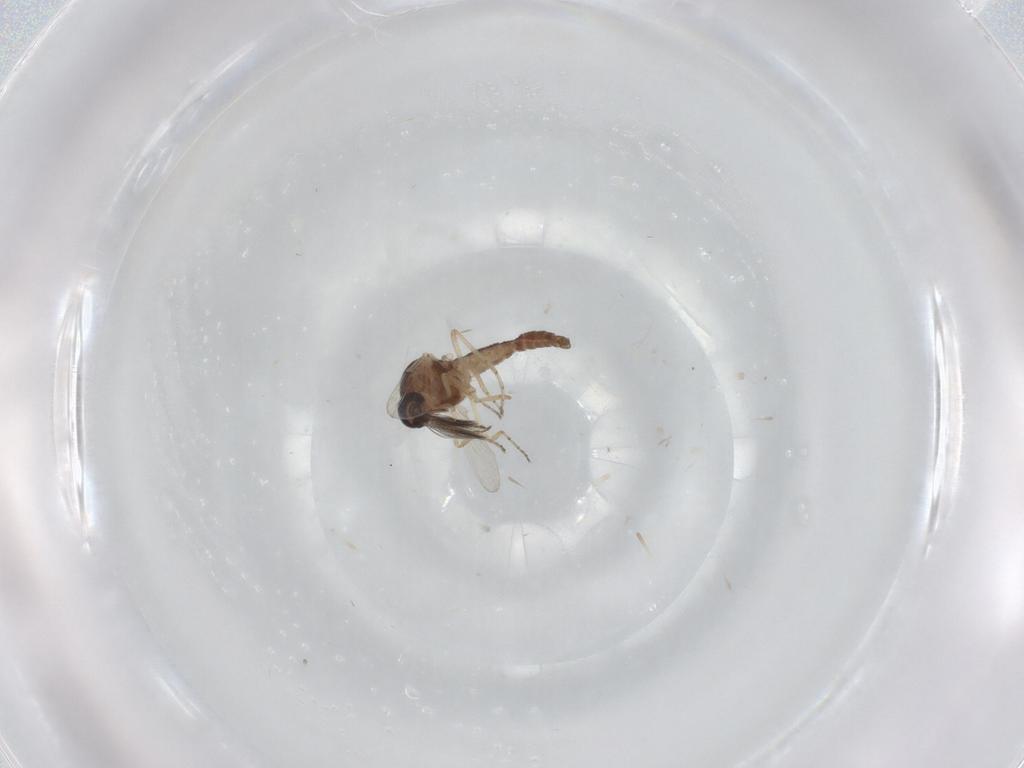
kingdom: Animalia
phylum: Arthropoda
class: Insecta
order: Diptera
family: Ceratopogonidae
